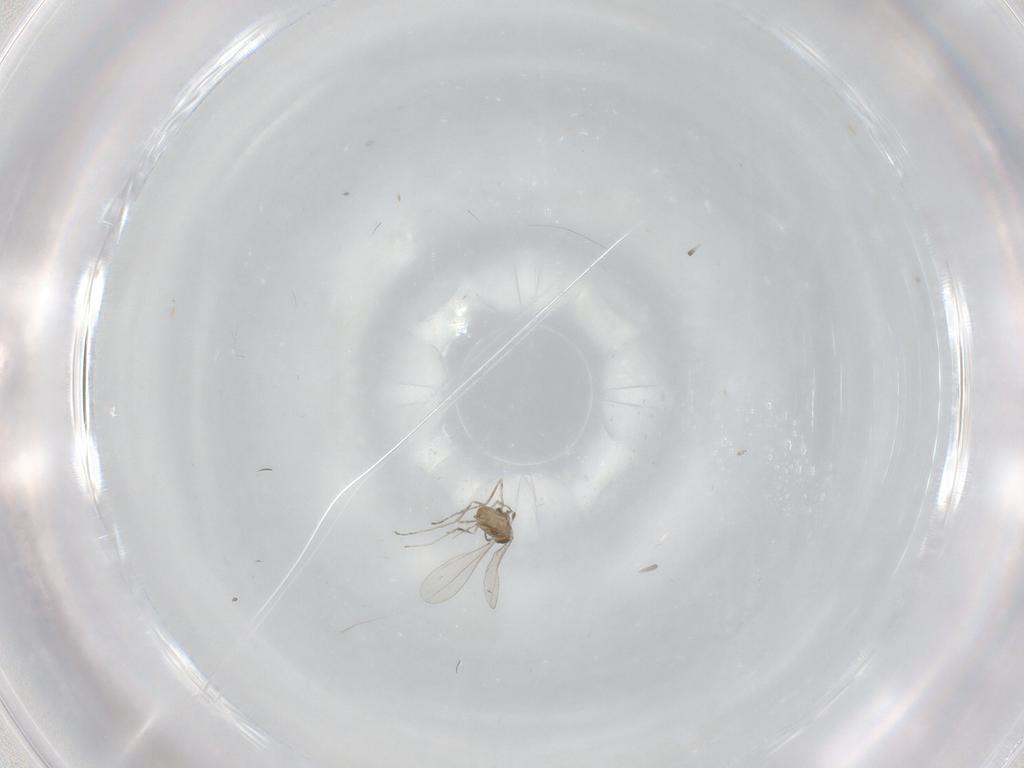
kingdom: Animalia
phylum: Arthropoda
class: Insecta
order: Diptera
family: Cecidomyiidae
